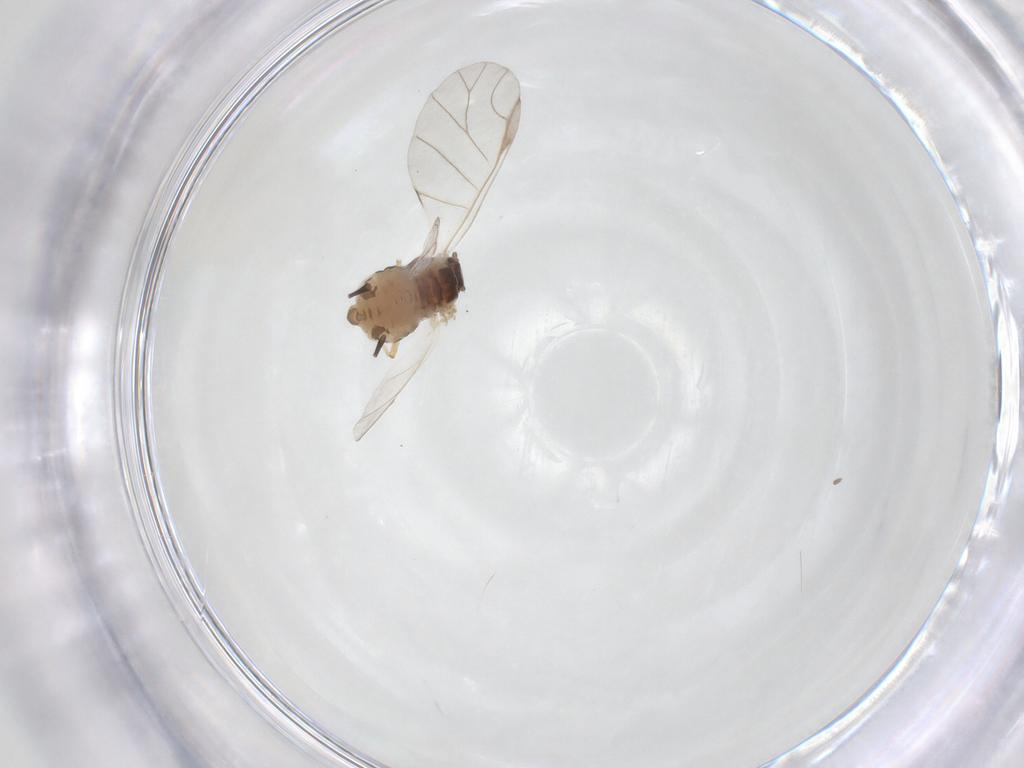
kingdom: Animalia
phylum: Arthropoda
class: Insecta
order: Hemiptera
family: Aphididae
